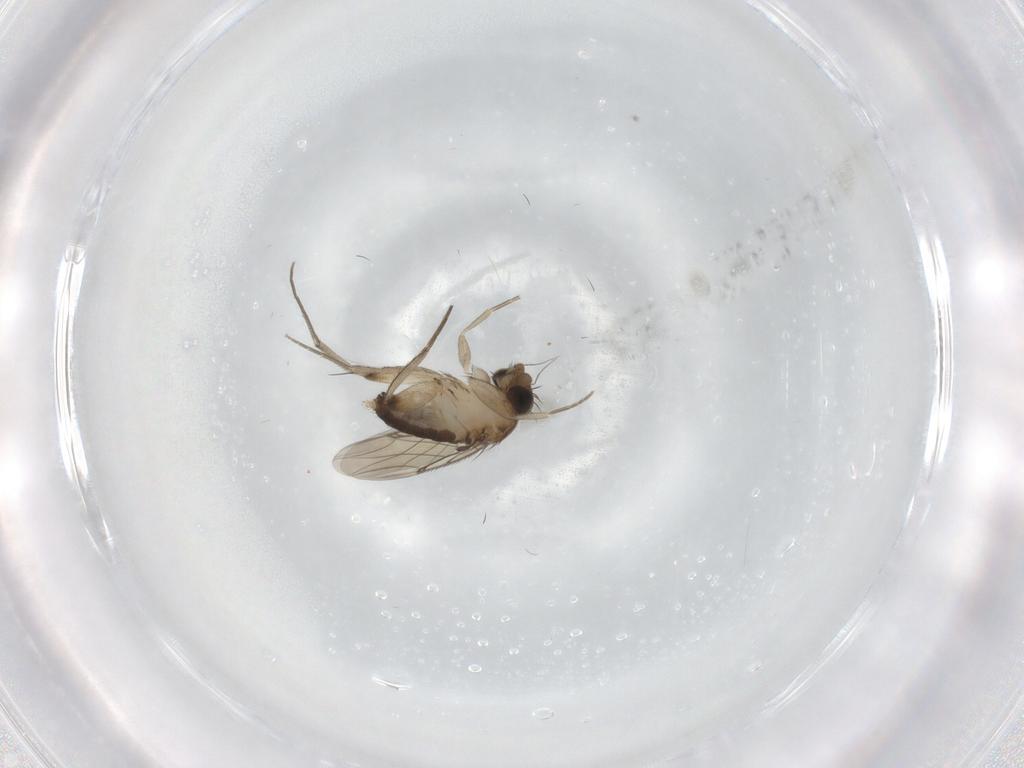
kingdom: Animalia
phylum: Arthropoda
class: Insecta
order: Diptera
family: Phoridae
